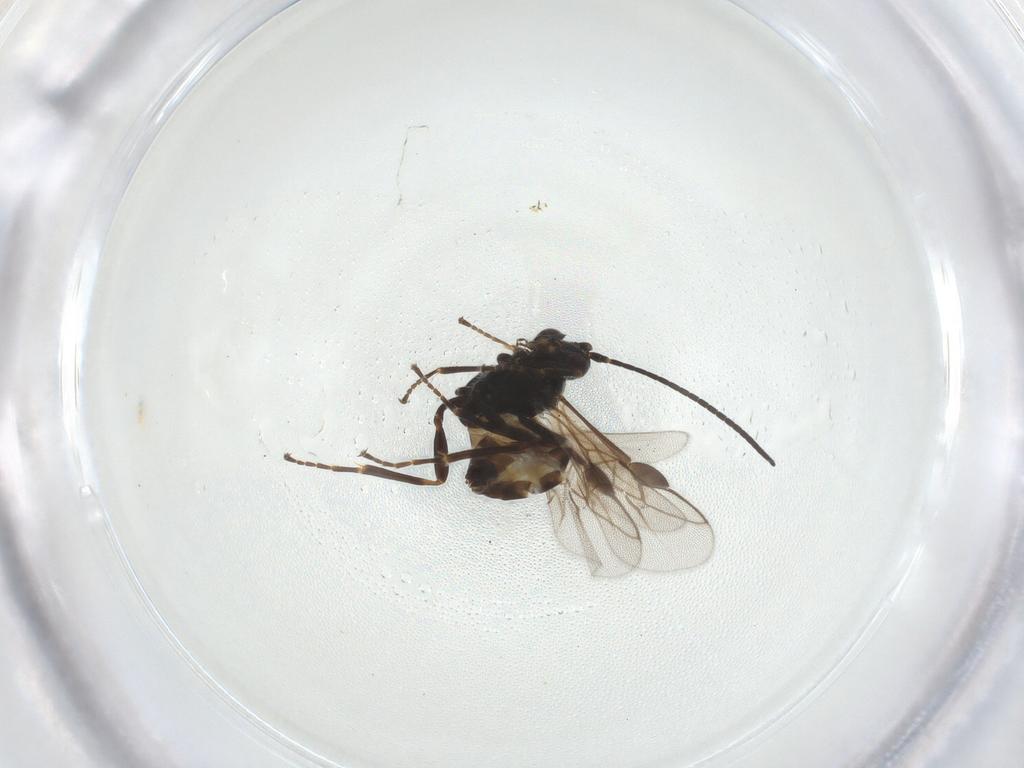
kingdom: Animalia
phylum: Arthropoda
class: Insecta
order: Hymenoptera
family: Braconidae
